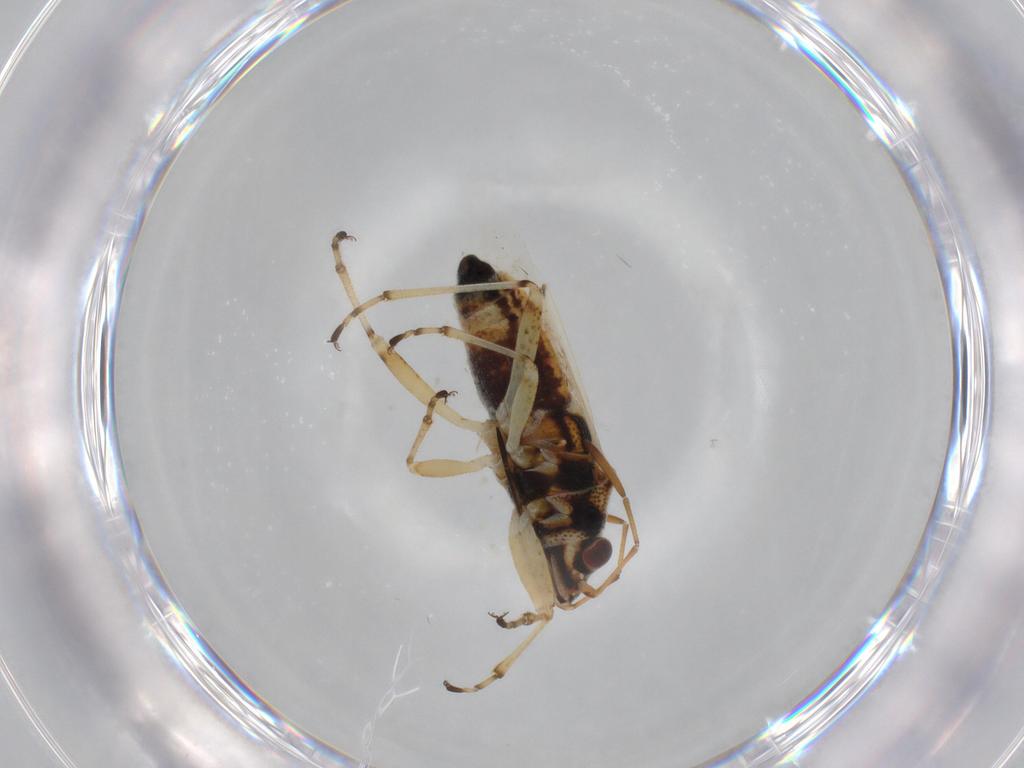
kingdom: Animalia
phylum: Arthropoda
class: Insecta
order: Hemiptera
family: Lygaeidae
